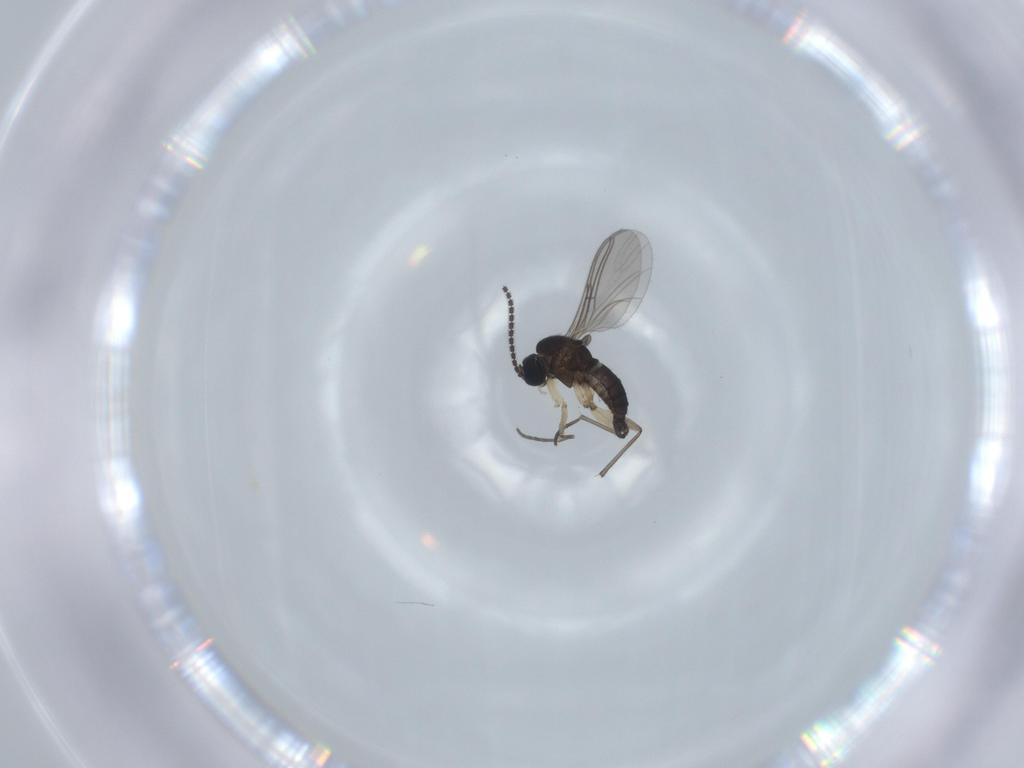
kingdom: Animalia
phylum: Arthropoda
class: Insecta
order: Diptera
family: Sciaridae
